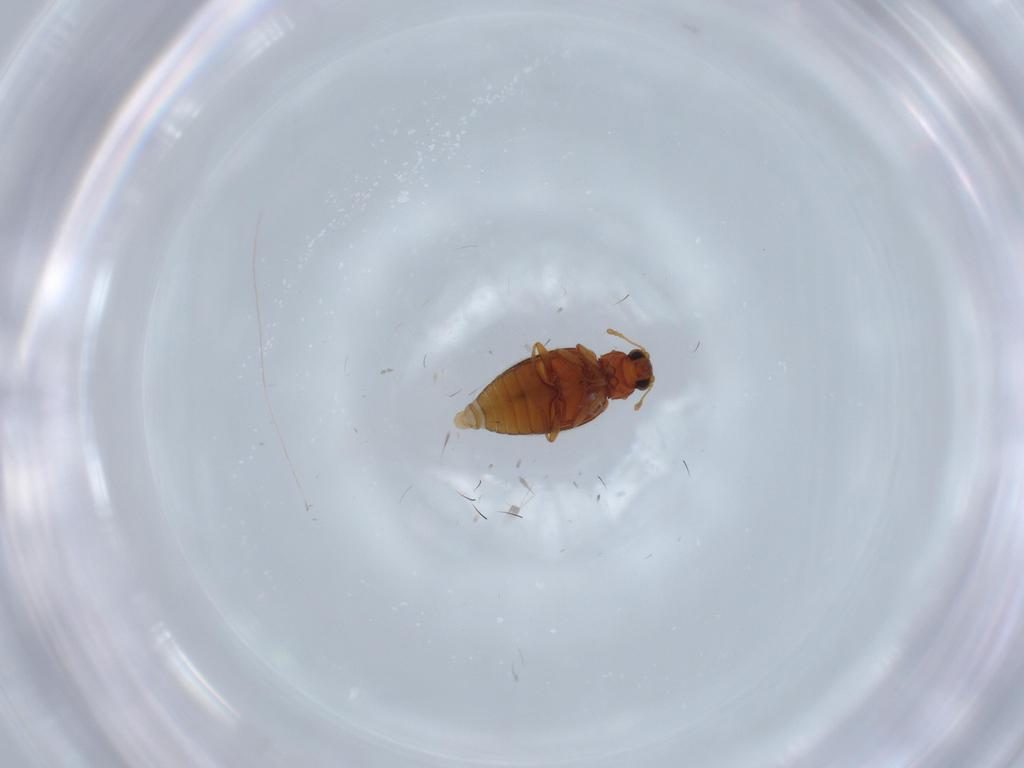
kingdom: Animalia
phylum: Arthropoda
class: Insecta
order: Coleoptera
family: Latridiidae
